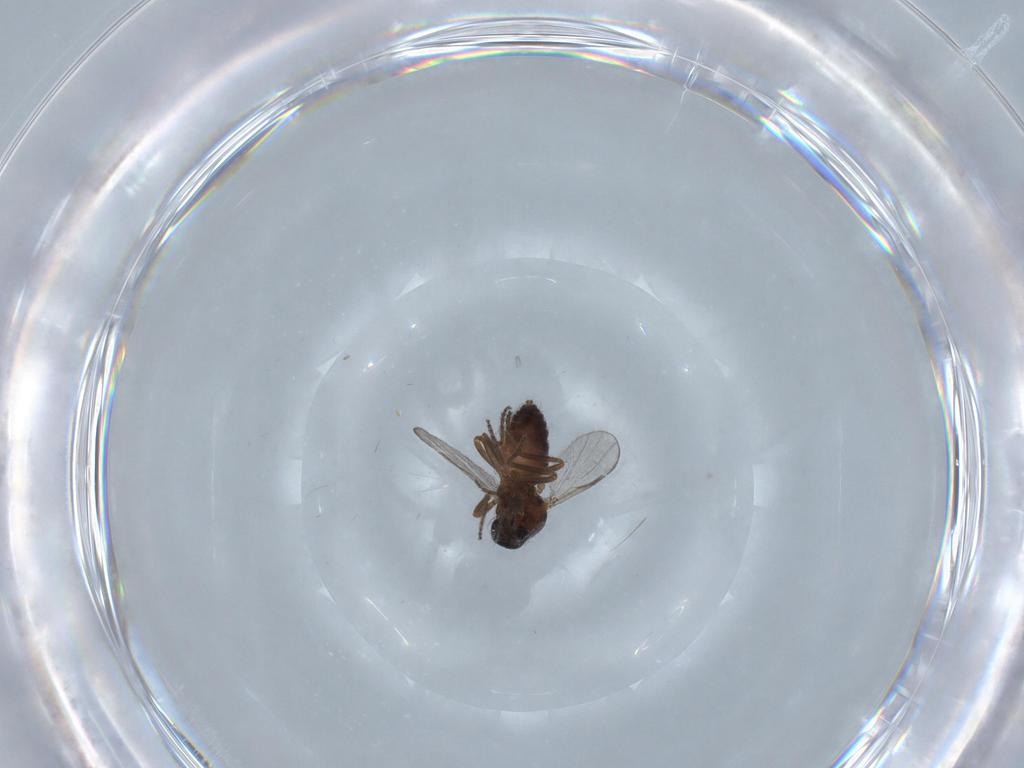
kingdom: Animalia
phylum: Arthropoda
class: Insecta
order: Diptera
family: Ceratopogonidae
